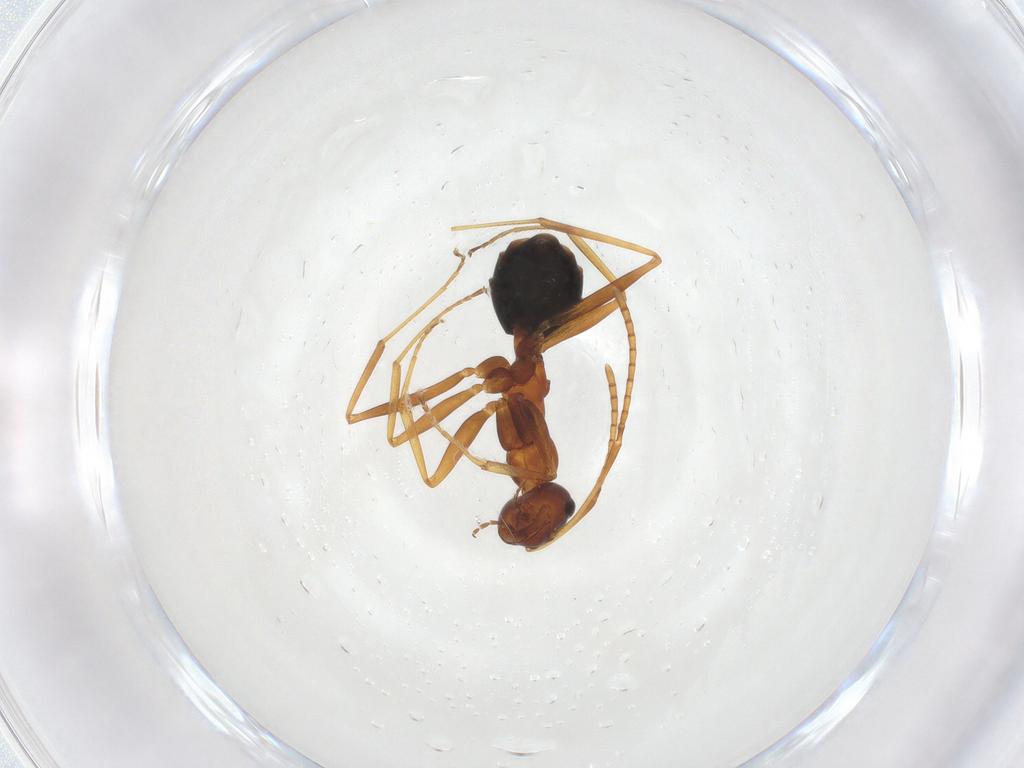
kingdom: Animalia
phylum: Arthropoda
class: Insecta
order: Hymenoptera
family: Formicidae
